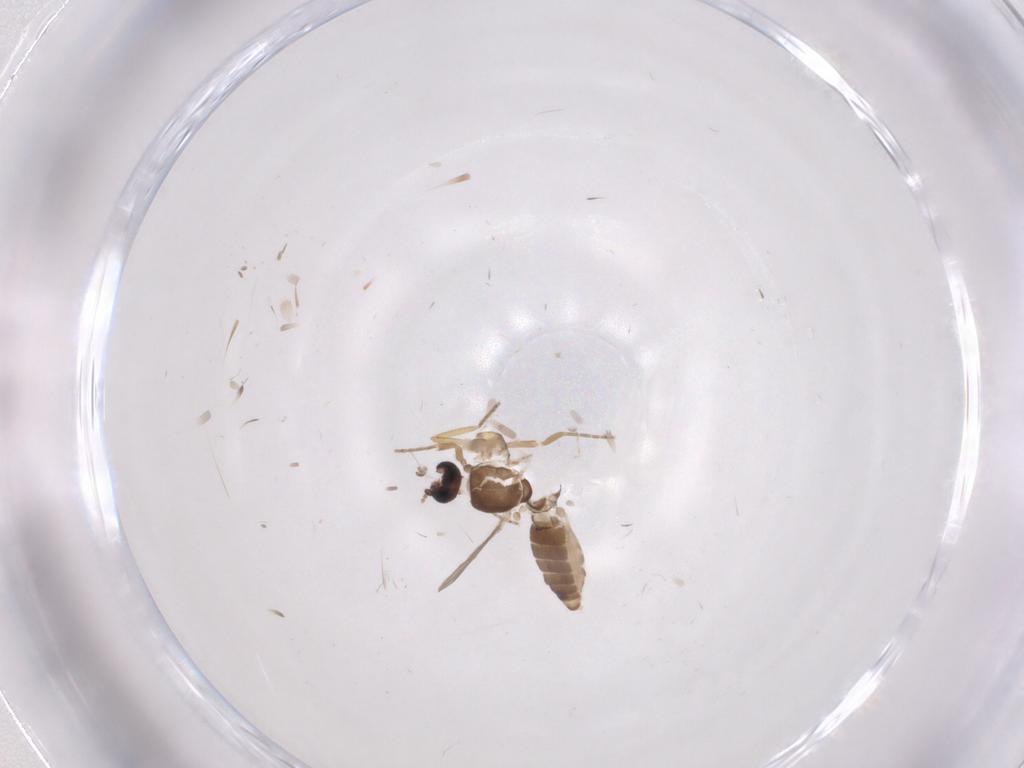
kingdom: Animalia
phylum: Arthropoda
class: Insecta
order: Diptera
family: Ceratopogonidae
